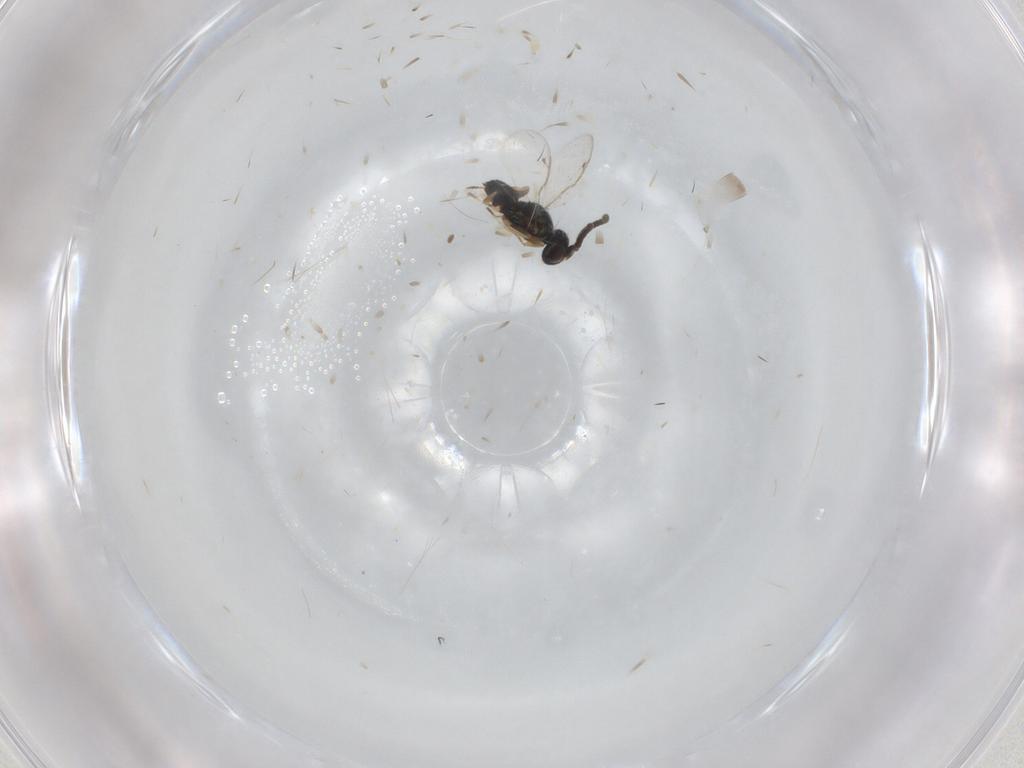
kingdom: Animalia
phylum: Arthropoda
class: Insecta
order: Hymenoptera
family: Eupelmidae
